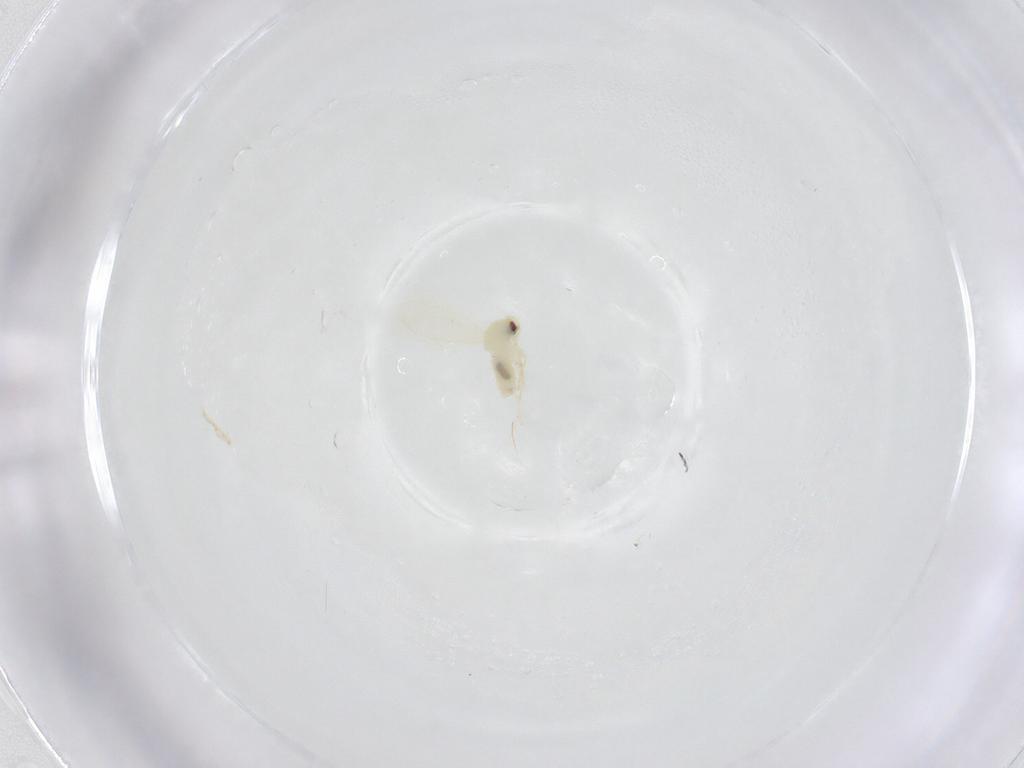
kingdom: Animalia
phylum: Arthropoda
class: Insecta
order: Hemiptera
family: Aleyrodidae
